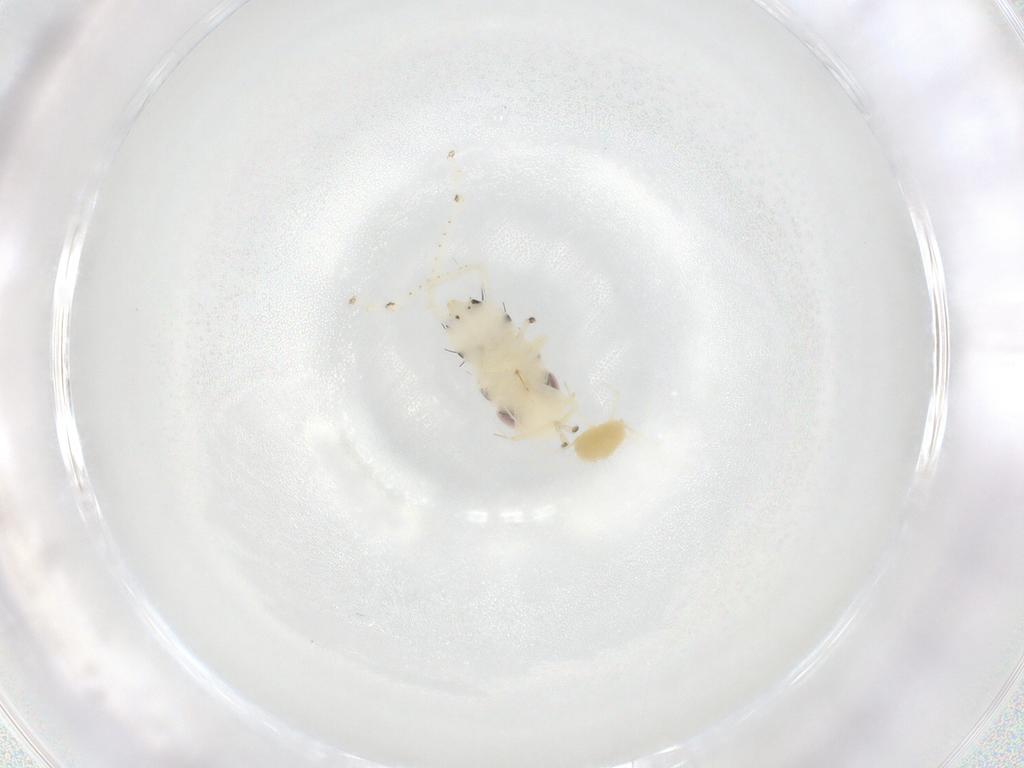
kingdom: Animalia
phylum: Arthropoda
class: Insecta
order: Hemiptera
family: Cicadellidae
